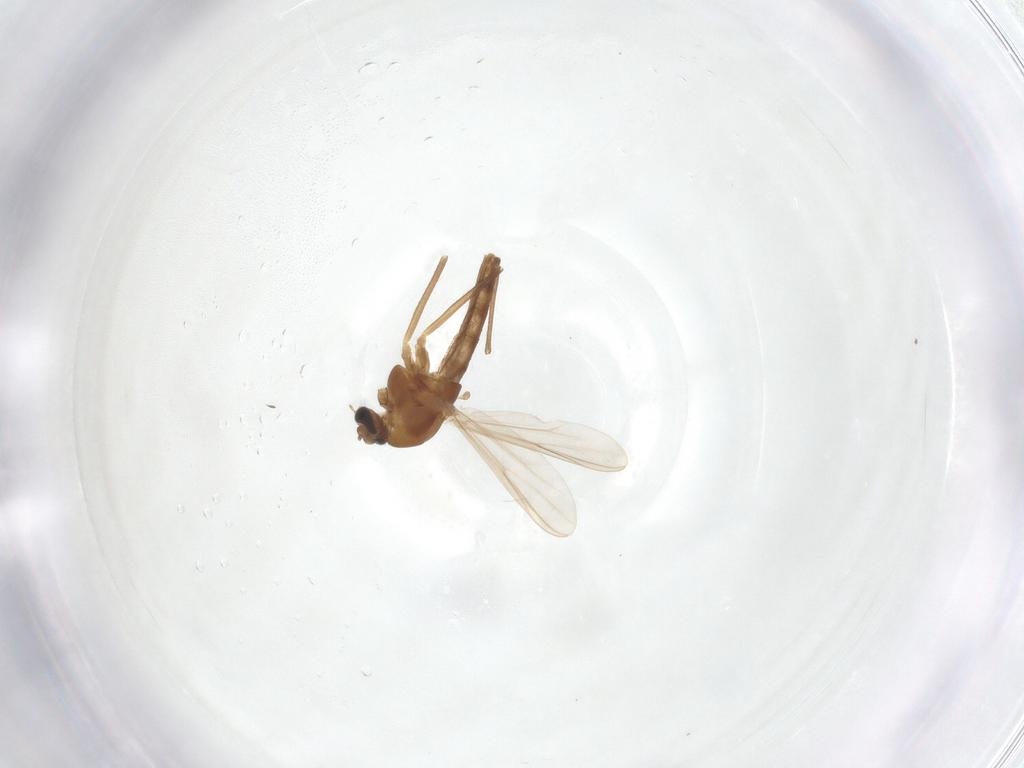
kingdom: Animalia
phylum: Arthropoda
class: Insecta
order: Diptera
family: Chironomidae
